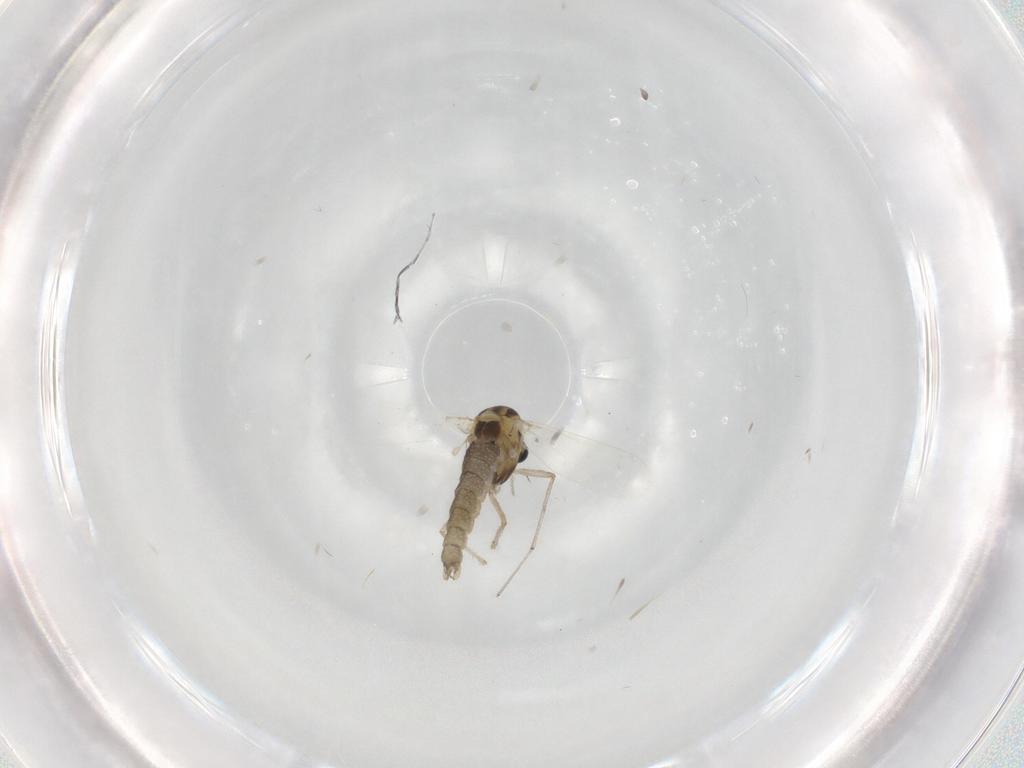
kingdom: Animalia
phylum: Arthropoda
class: Insecta
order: Diptera
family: Chironomidae
